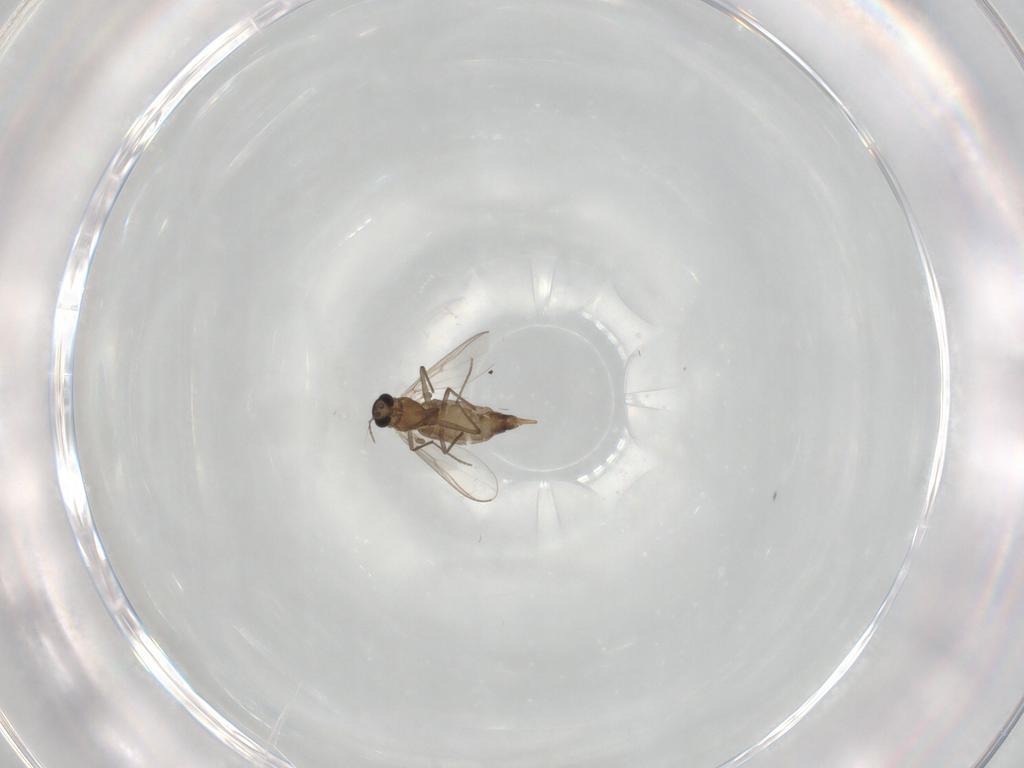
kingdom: Animalia
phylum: Arthropoda
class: Insecta
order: Diptera
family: Chironomidae
